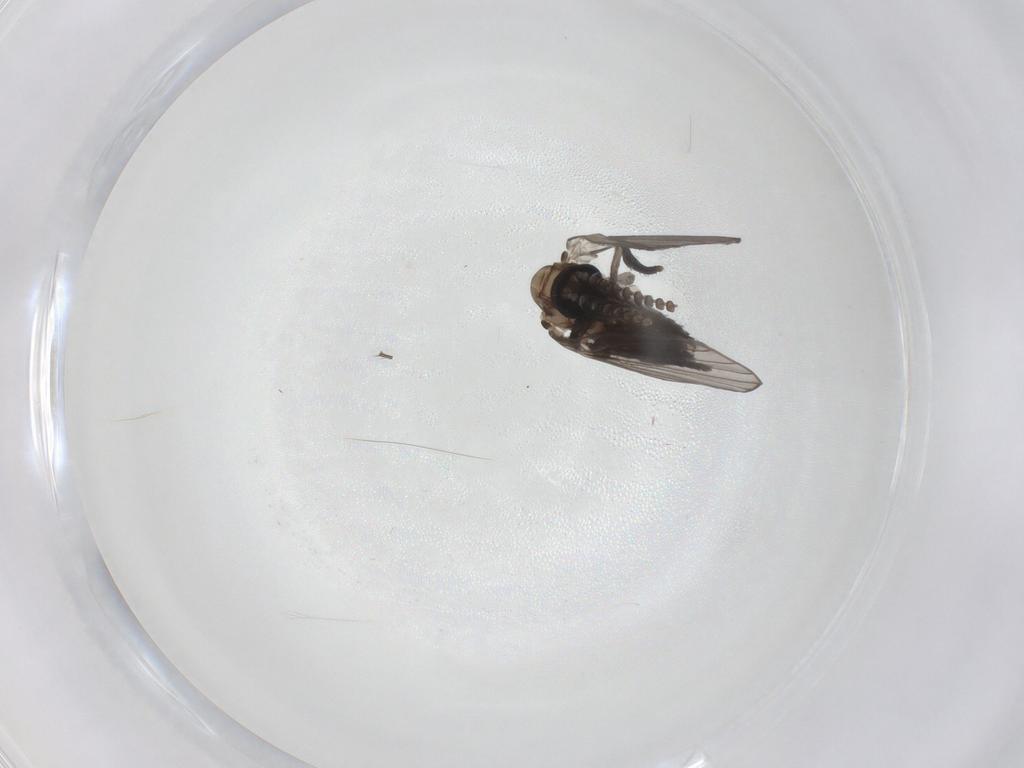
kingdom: Animalia
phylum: Arthropoda
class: Insecta
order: Diptera
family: Psychodidae
